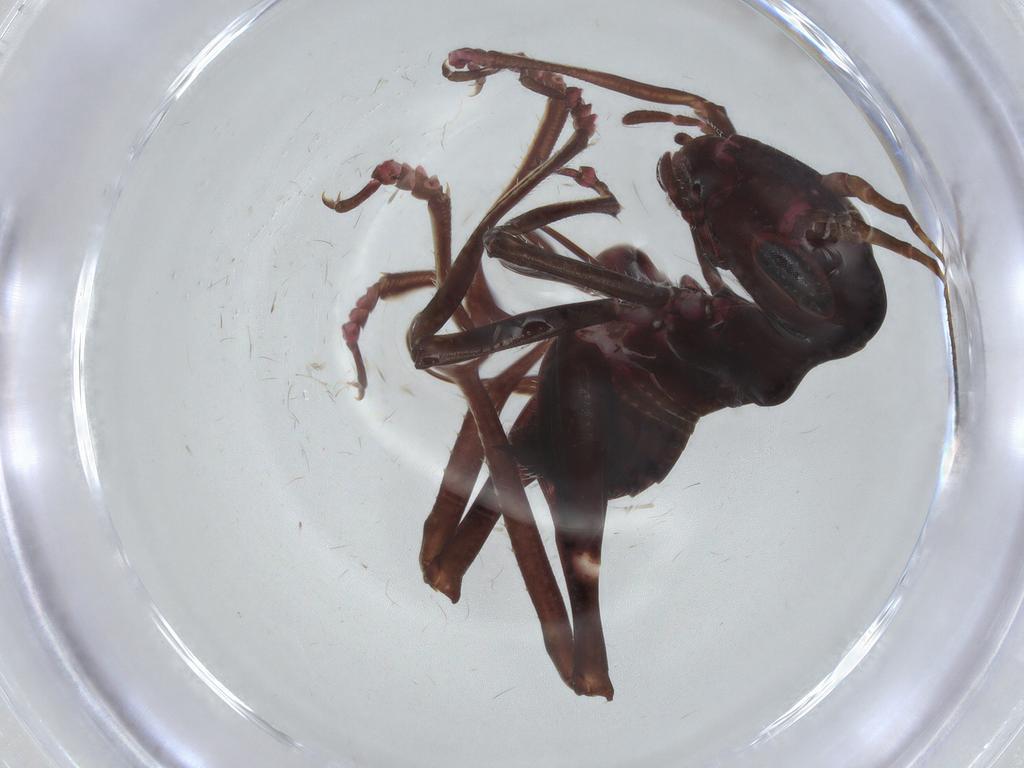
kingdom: Animalia
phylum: Arthropoda
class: Insecta
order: Orthoptera
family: Tettigoniidae
